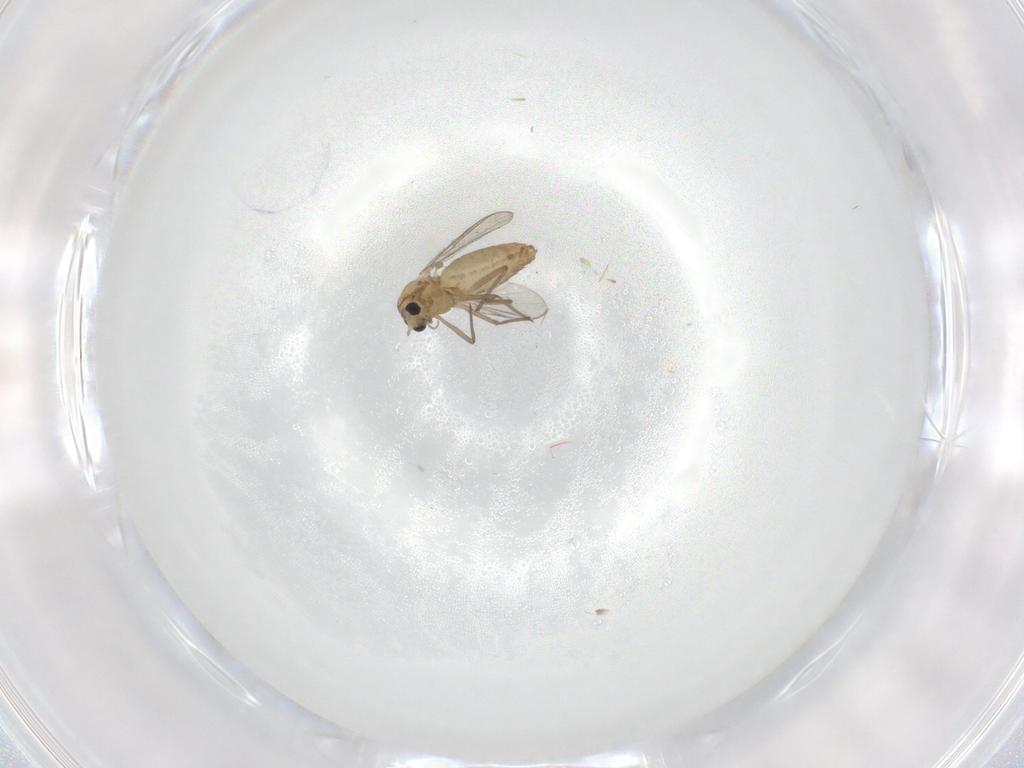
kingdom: Animalia
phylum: Arthropoda
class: Insecta
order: Diptera
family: Chironomidae
